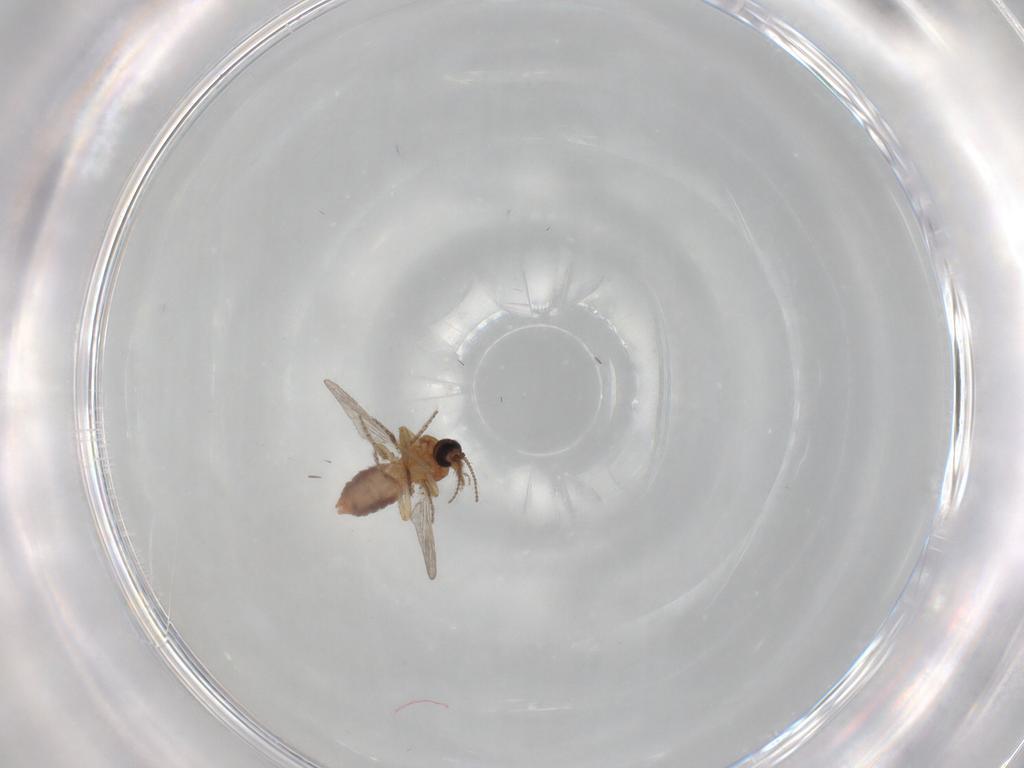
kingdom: Animalia
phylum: Arthropoda
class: Insecta
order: Diptera
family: Ceratopogonidae
